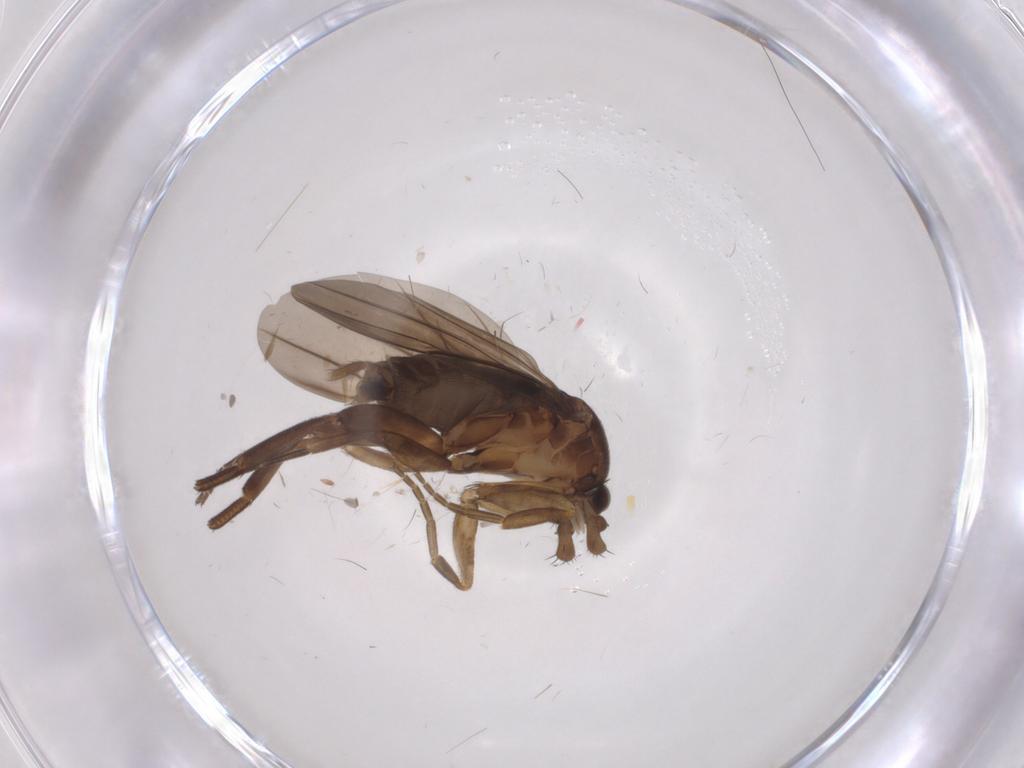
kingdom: Animalia
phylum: Arthropoda
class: Insecta
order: Diptera
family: Phoridae
